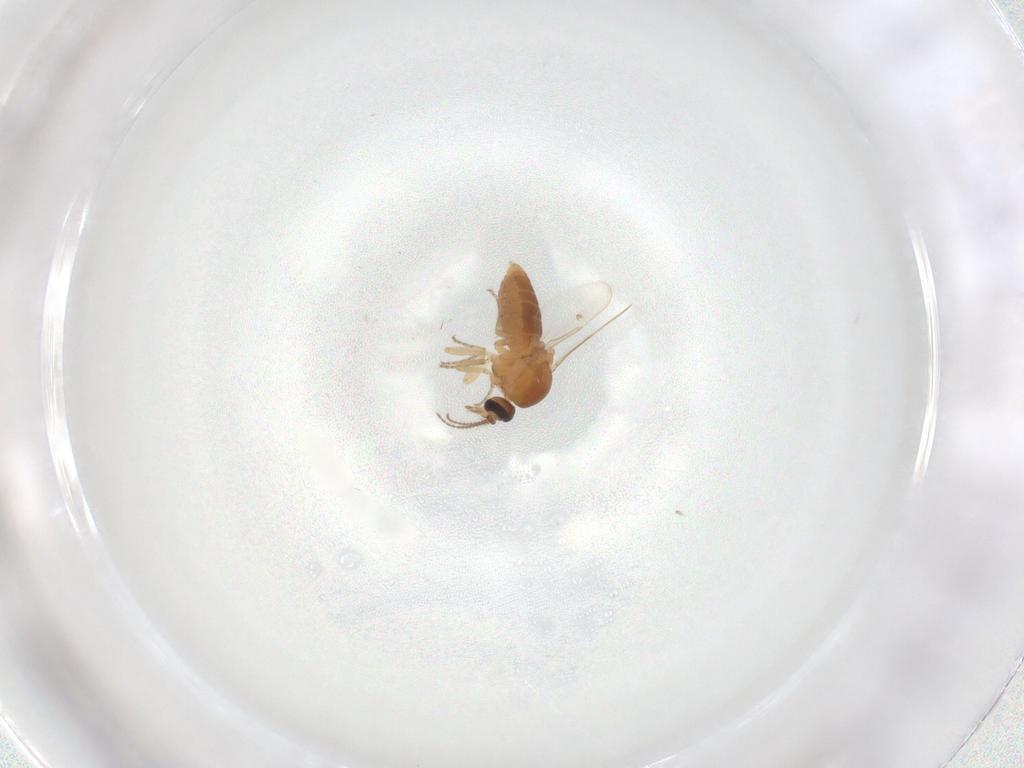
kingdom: Animalia
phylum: Arthropoda
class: Insecta
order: Diptera
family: Ceratopogonidae
